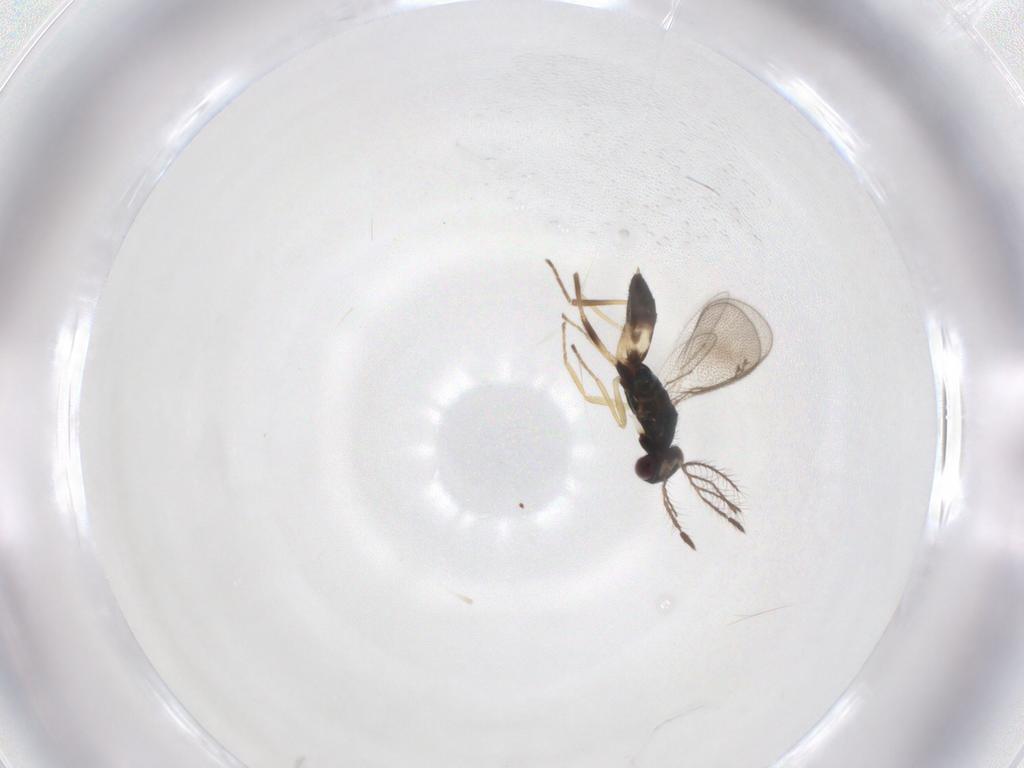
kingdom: Animalia
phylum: Arthropoda
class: Insecta
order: Hymenoptera
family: Eulophidae
